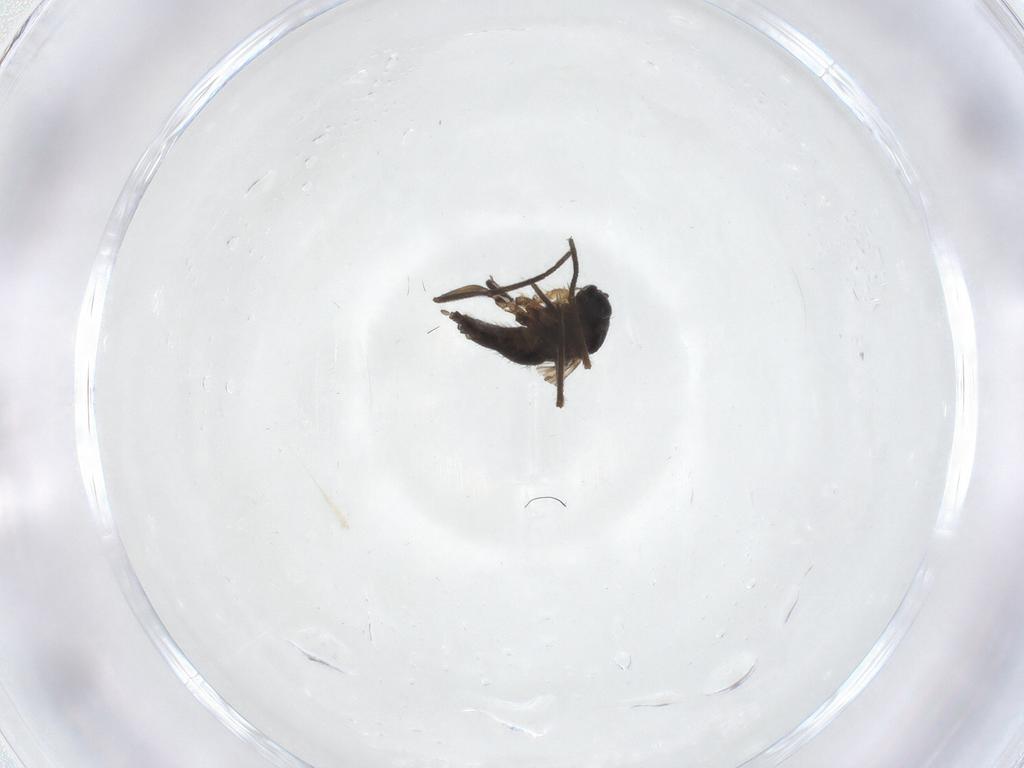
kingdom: Animalia
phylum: Arthropoda
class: Insecta
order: Diptera
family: Sciaridae
